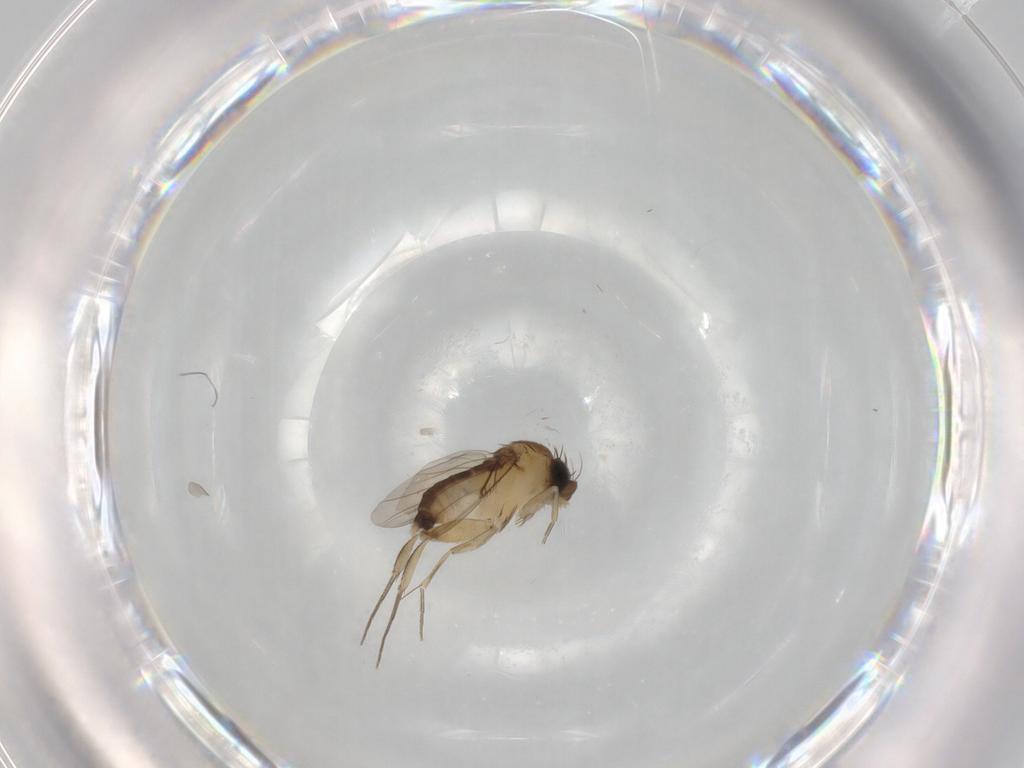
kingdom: Animalia
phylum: Arthropoda
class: Insecta
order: Diptera
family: Phoridae
